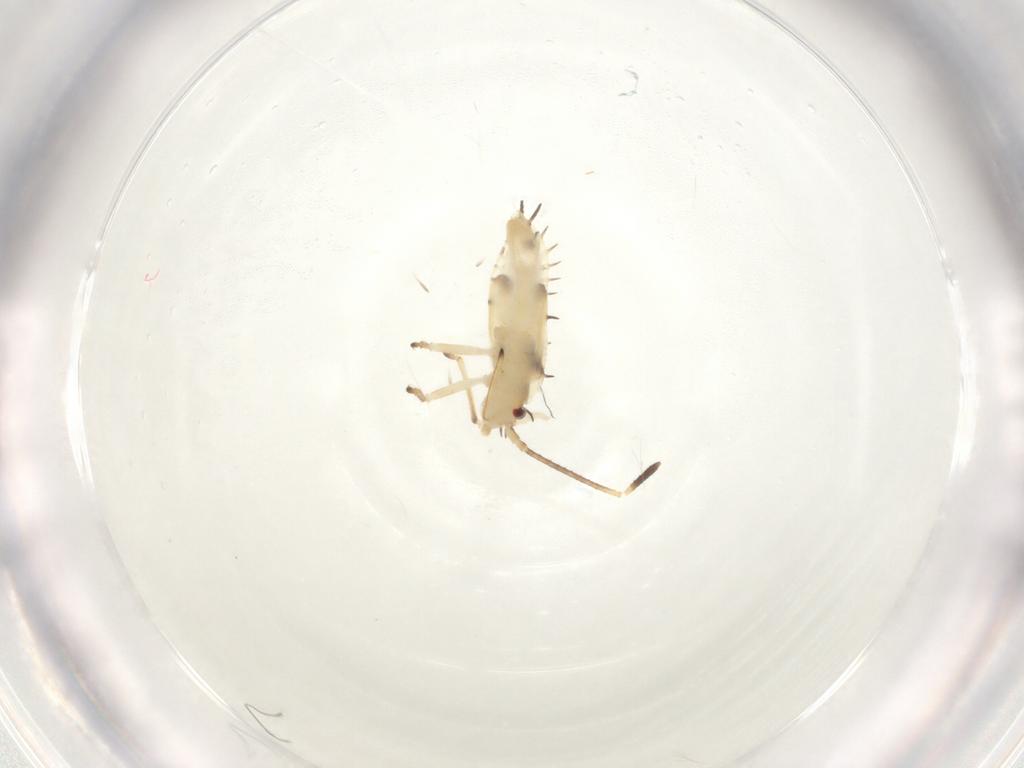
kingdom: Animalia
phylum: Arthropoda
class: Insecta
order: Hemiptera
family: Tingidae
